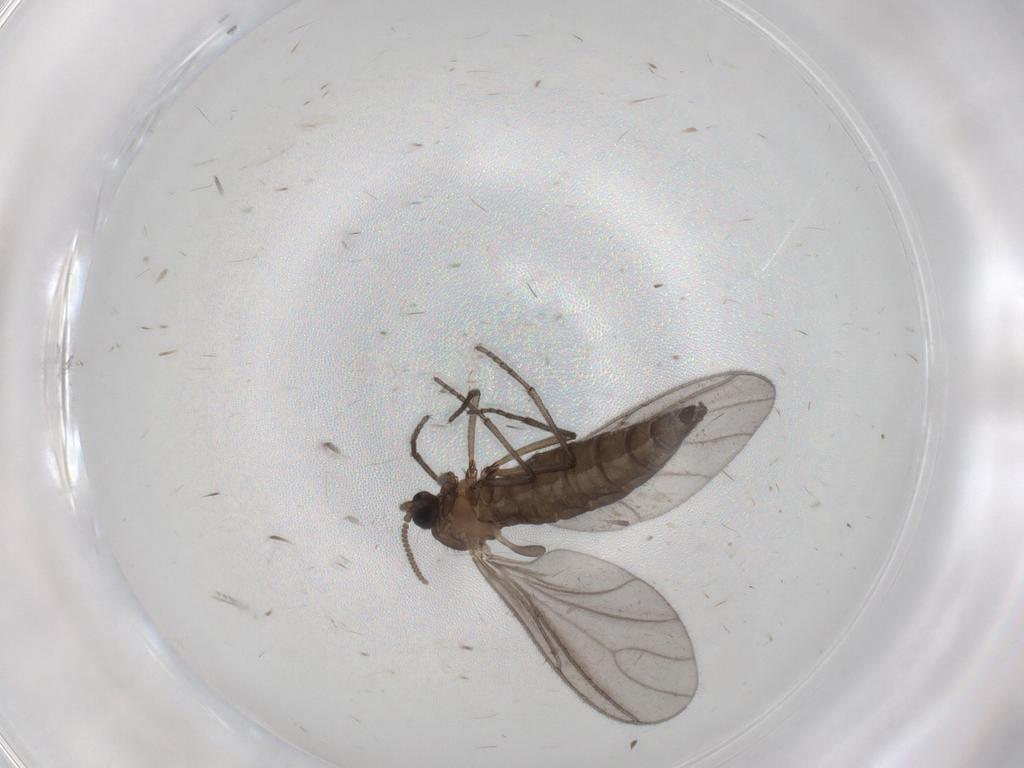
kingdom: Animalia
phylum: Arthropoda
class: Insecta
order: Diptera
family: Sciaridae
